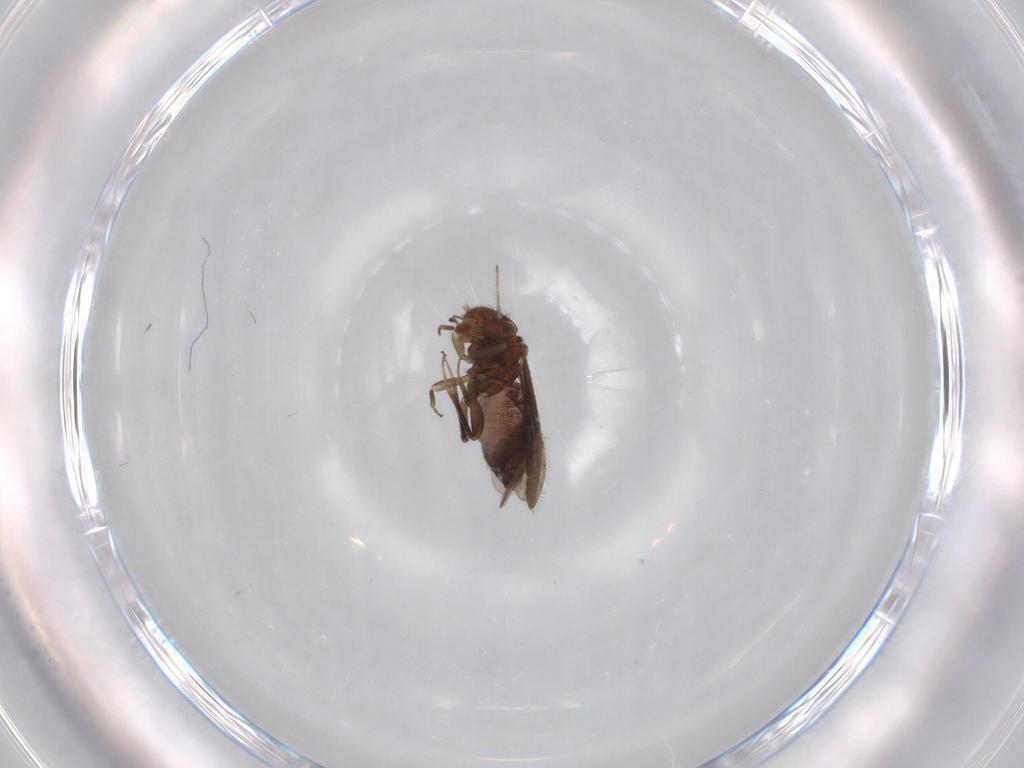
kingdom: Animalia
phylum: Arthropoda
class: Insecta
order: Psocodea
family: Ectopsocidae
